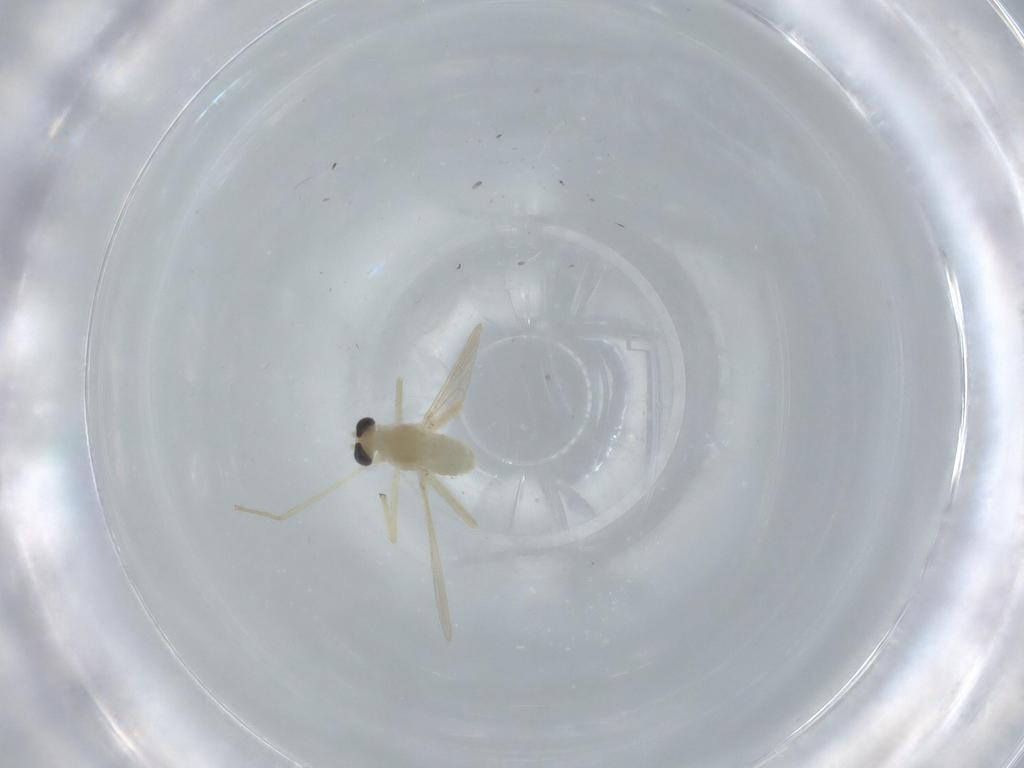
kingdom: Animalia
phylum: Arthropoda
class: Insecta
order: Diptera
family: Chironomidae
